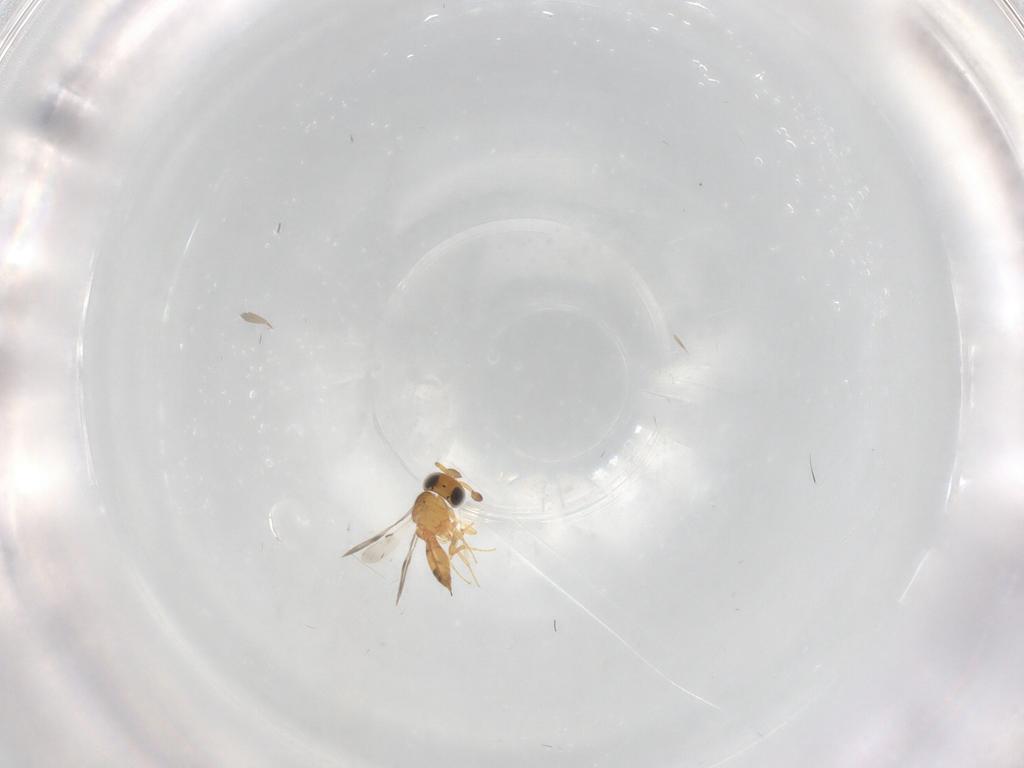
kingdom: Animalia
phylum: Arthropoda
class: Insecta
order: Hymenoptera
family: Scelionidae
